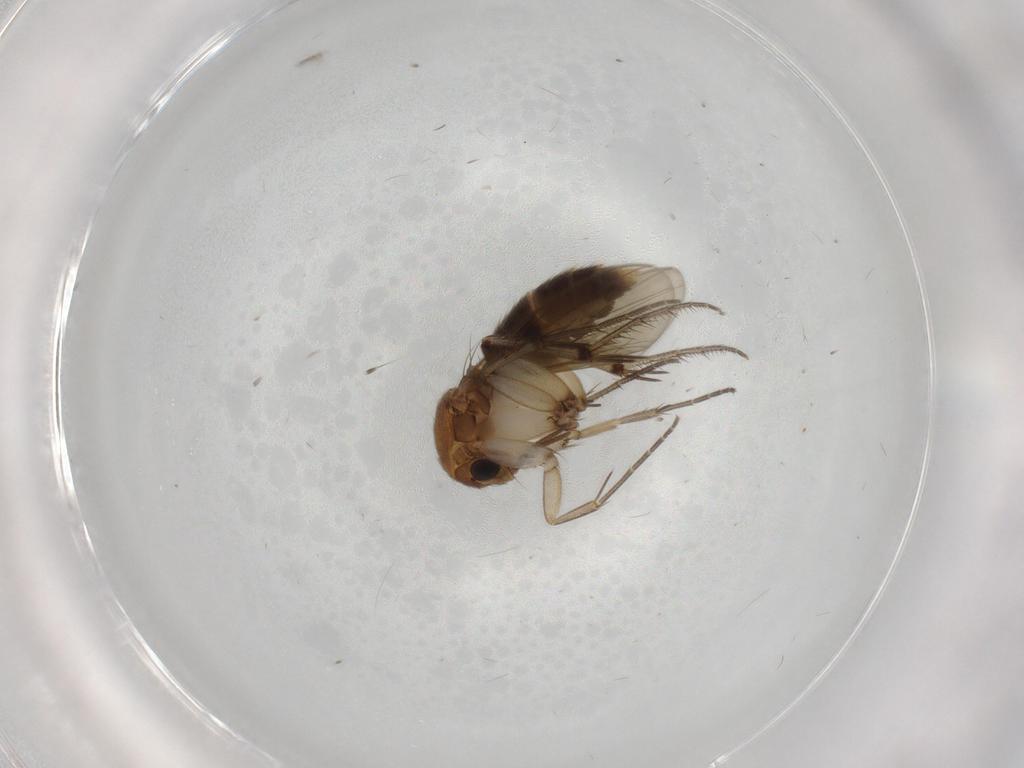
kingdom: Animalia
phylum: Arthropoda
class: Insecta
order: Diptera
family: Mycetophilidae
